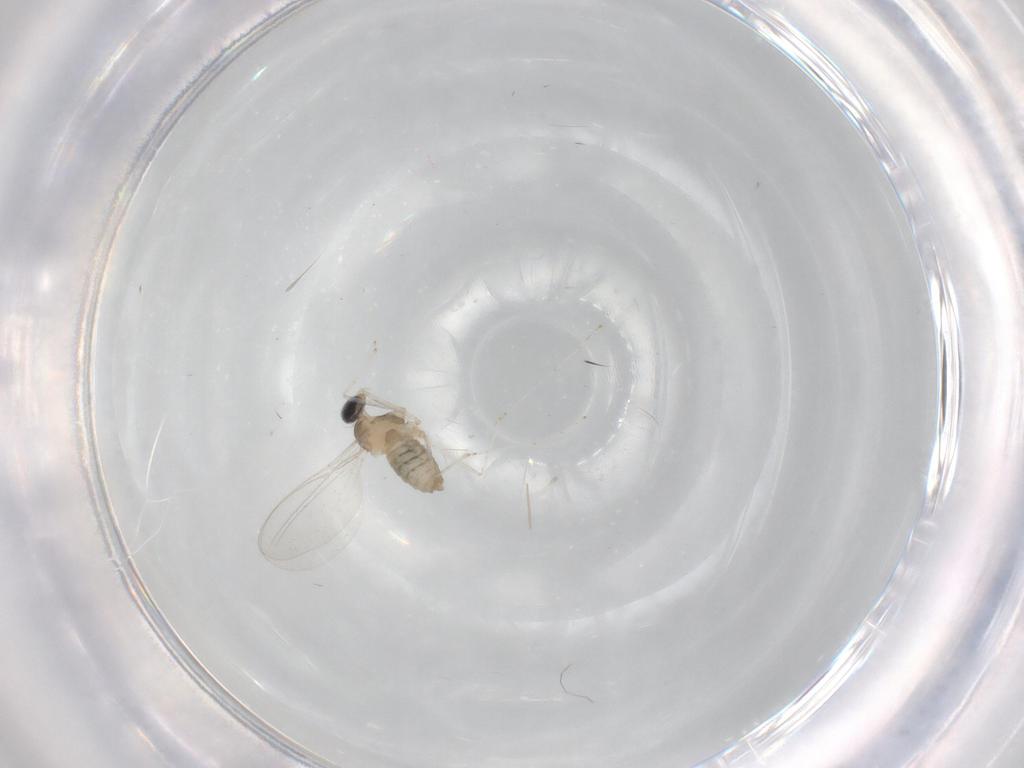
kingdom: Animalia
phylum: Arthropoda
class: Insecta
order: Diptera
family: Cecidomyiidae
